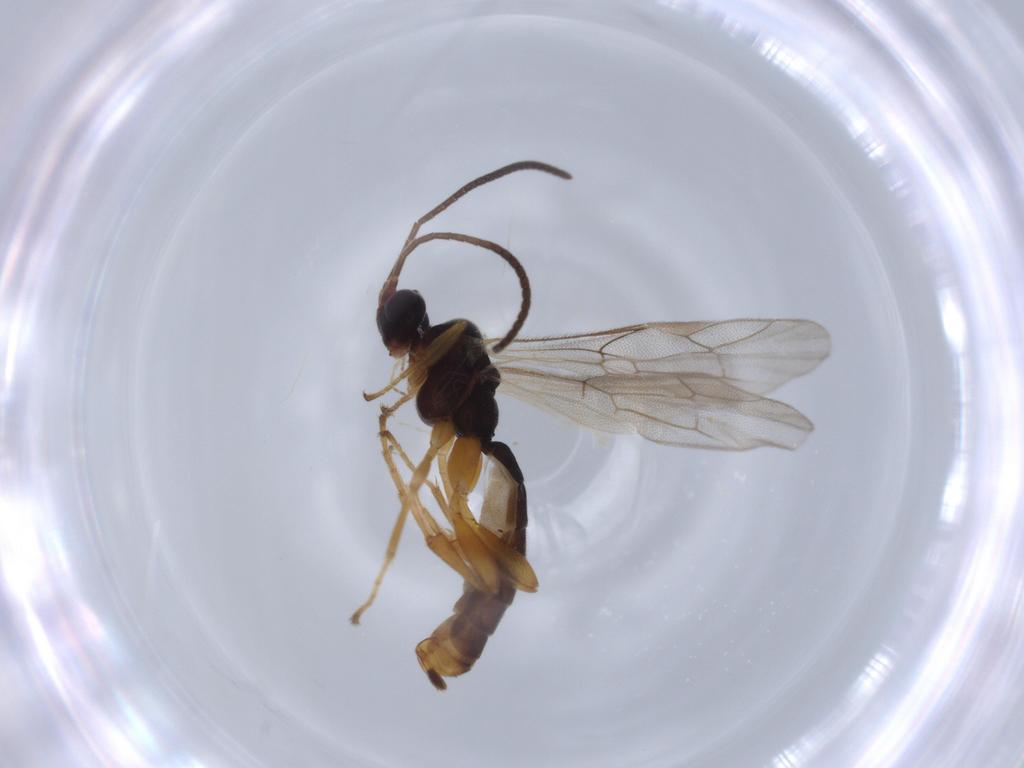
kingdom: Animalia
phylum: Arthropoda
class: Insecta
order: Hymenoptera
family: Ichneumonidae
